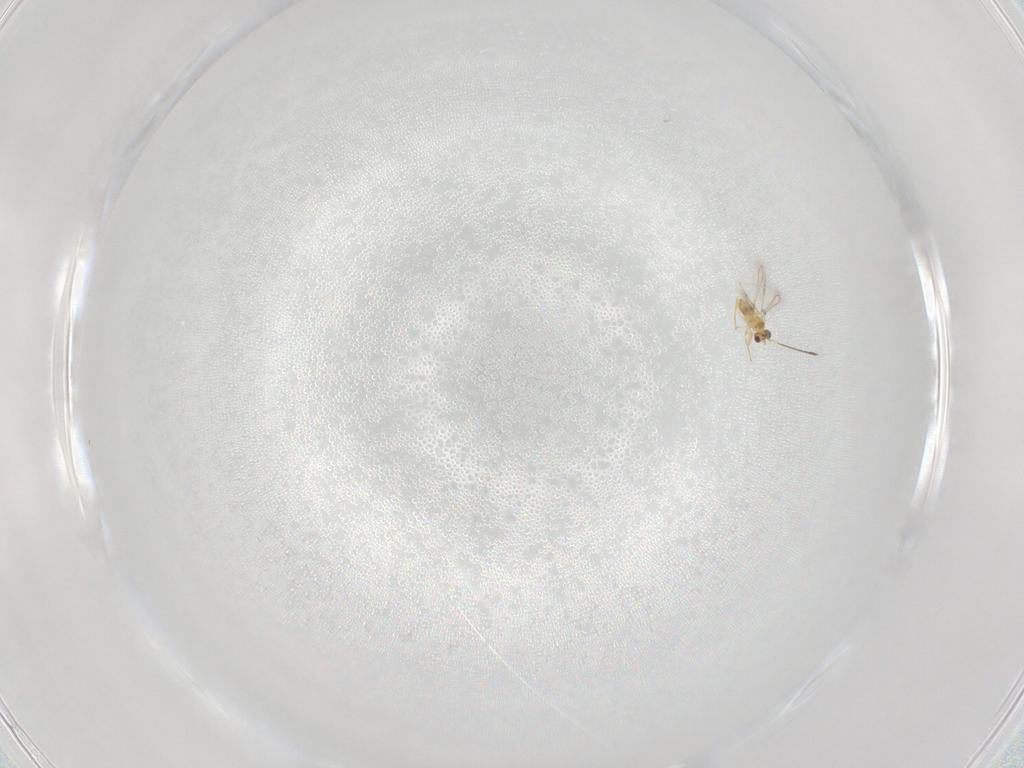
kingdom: Animalia
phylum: Arthropoda
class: Insecta
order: Hymenoptera
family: Mymaridae
